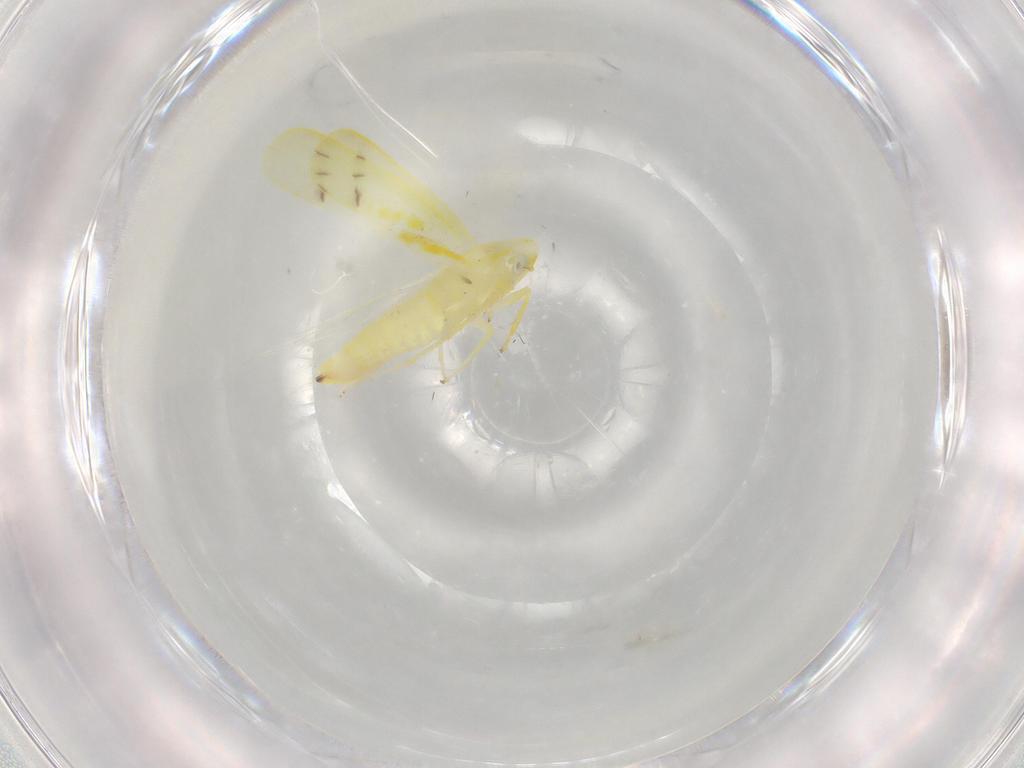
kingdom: Animalia
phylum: Arthropoda
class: Insecta
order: Hemiptera
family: Cicadellidae
